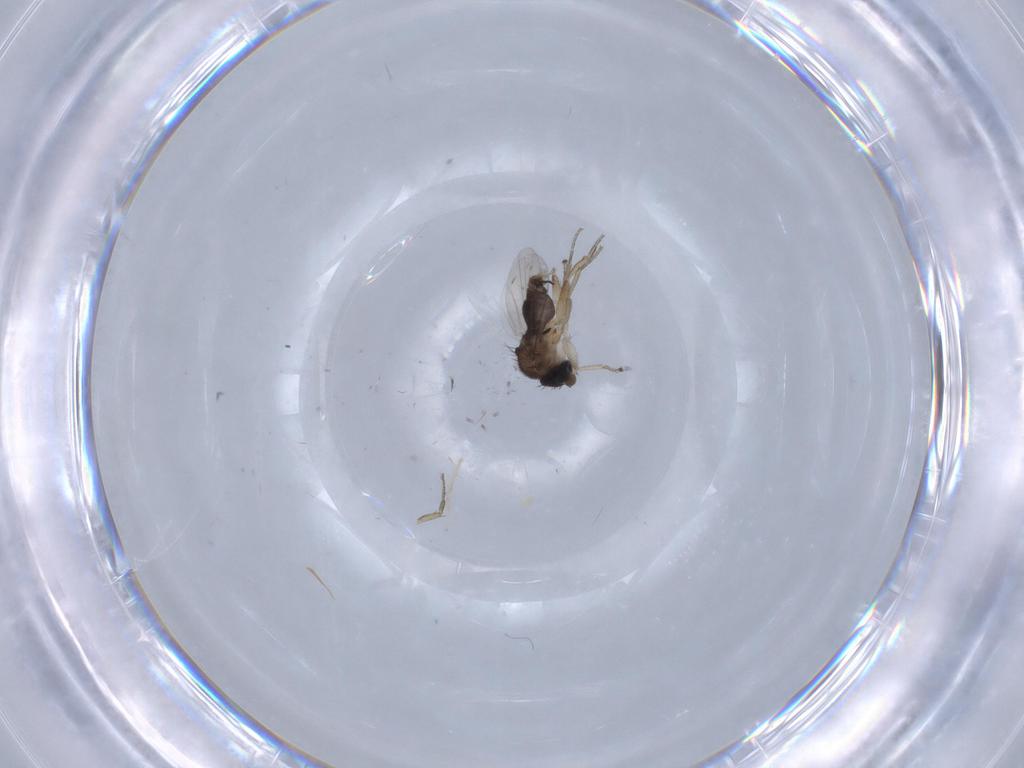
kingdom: Animalia
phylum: Arthropoda
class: Insecta
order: Diptera
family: Phoridae
